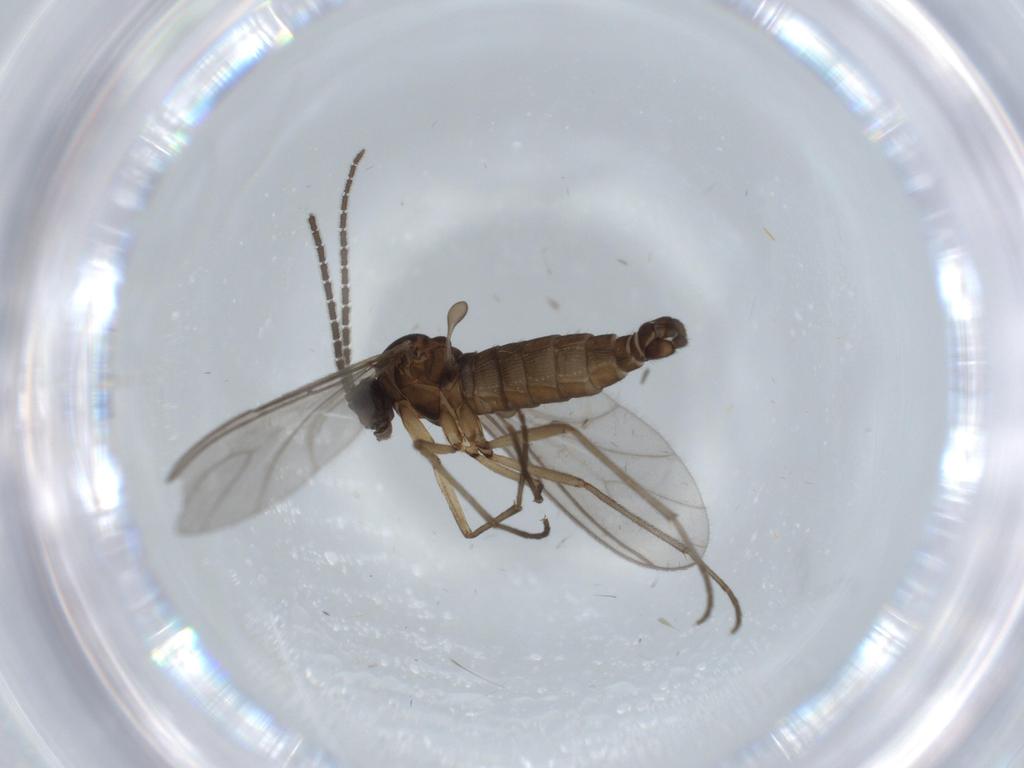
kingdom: Animalia
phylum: Arthropoda
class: Insecta
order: Diptera
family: Sciaridae
